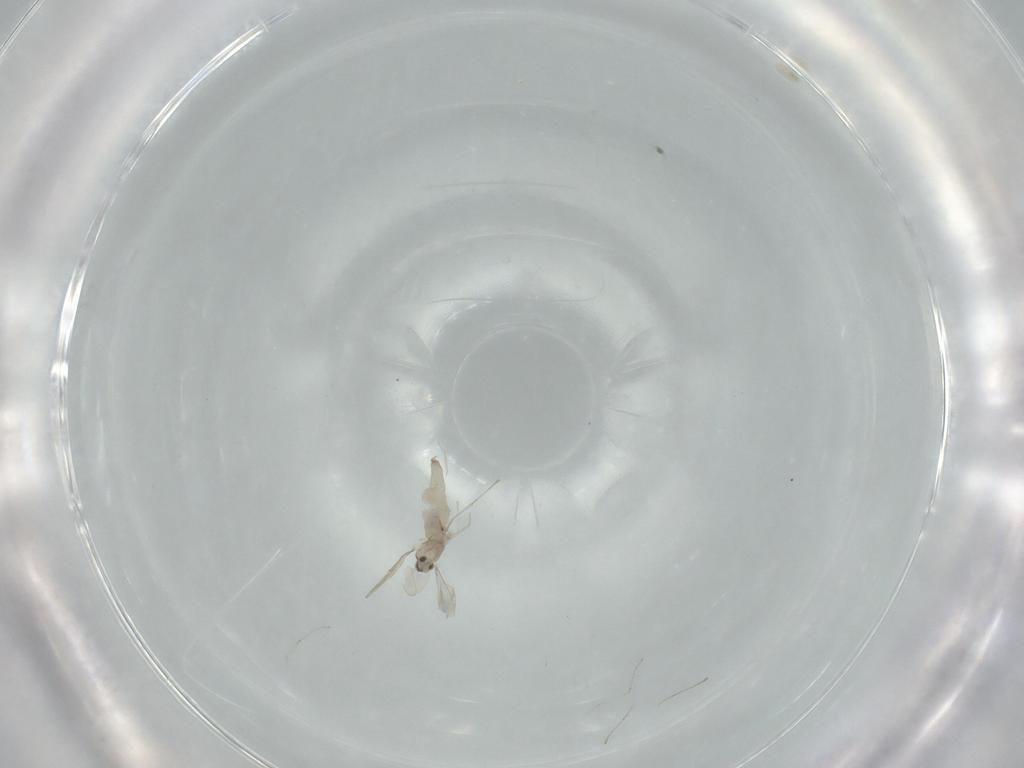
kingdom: Animalia
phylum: Arthropoda
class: Insecta
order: Diptera
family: Cecidomyiidae
